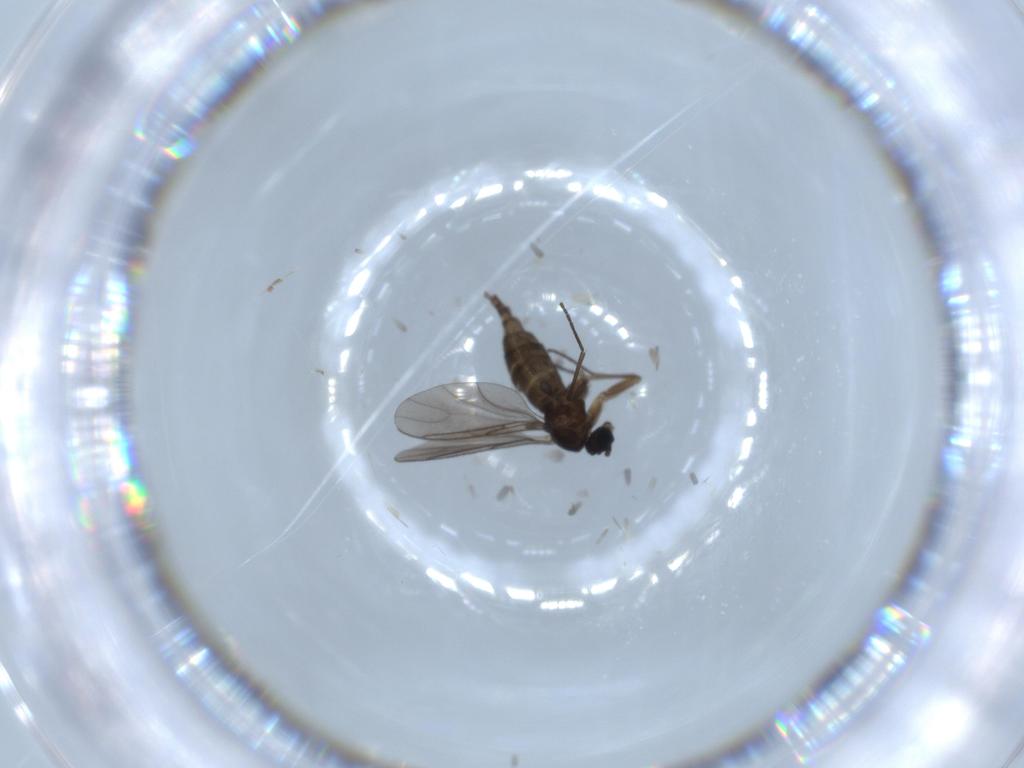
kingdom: Animalia
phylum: Arthropoda
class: Insecta
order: Diptera
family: Sciaridae
